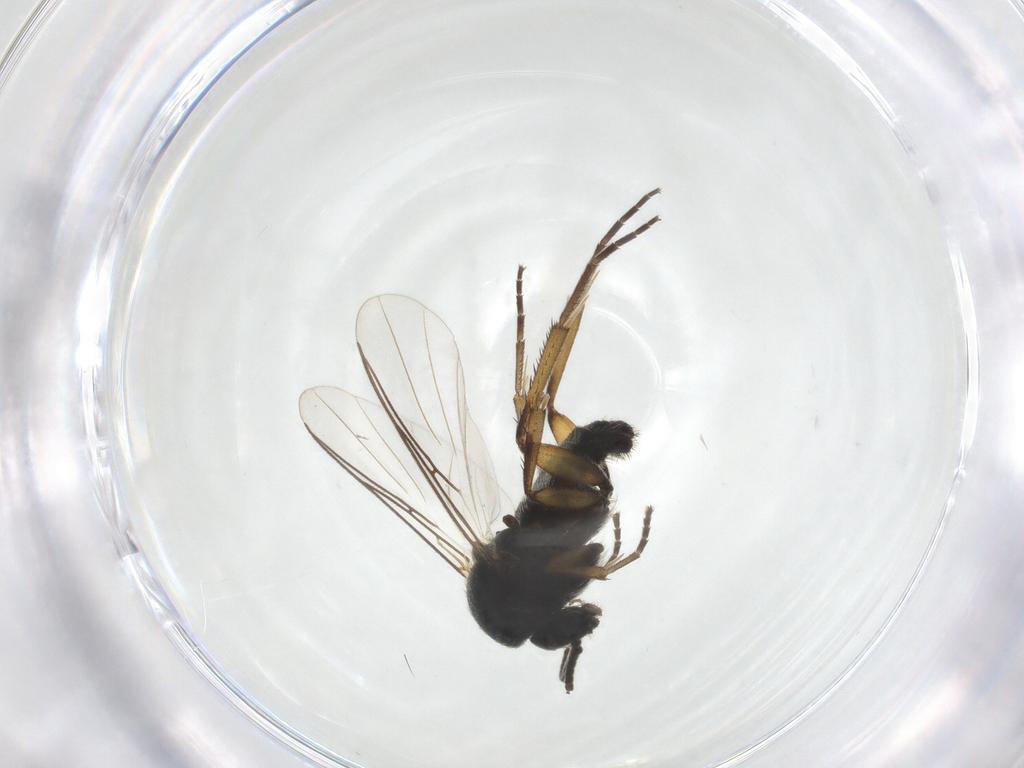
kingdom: Animalia
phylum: Arthropoda
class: Insecta
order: Diptera
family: Mycetophilidae
